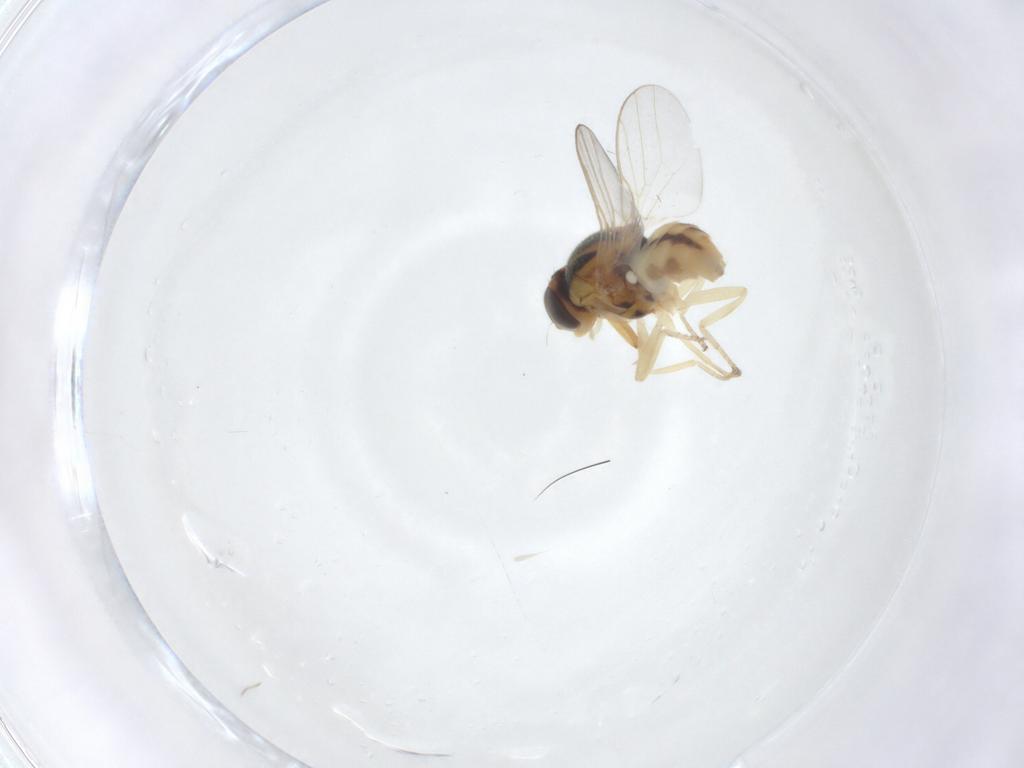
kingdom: Animalia
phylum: Arthropoda
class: Insecta
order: Diptera
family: Chloropidae
